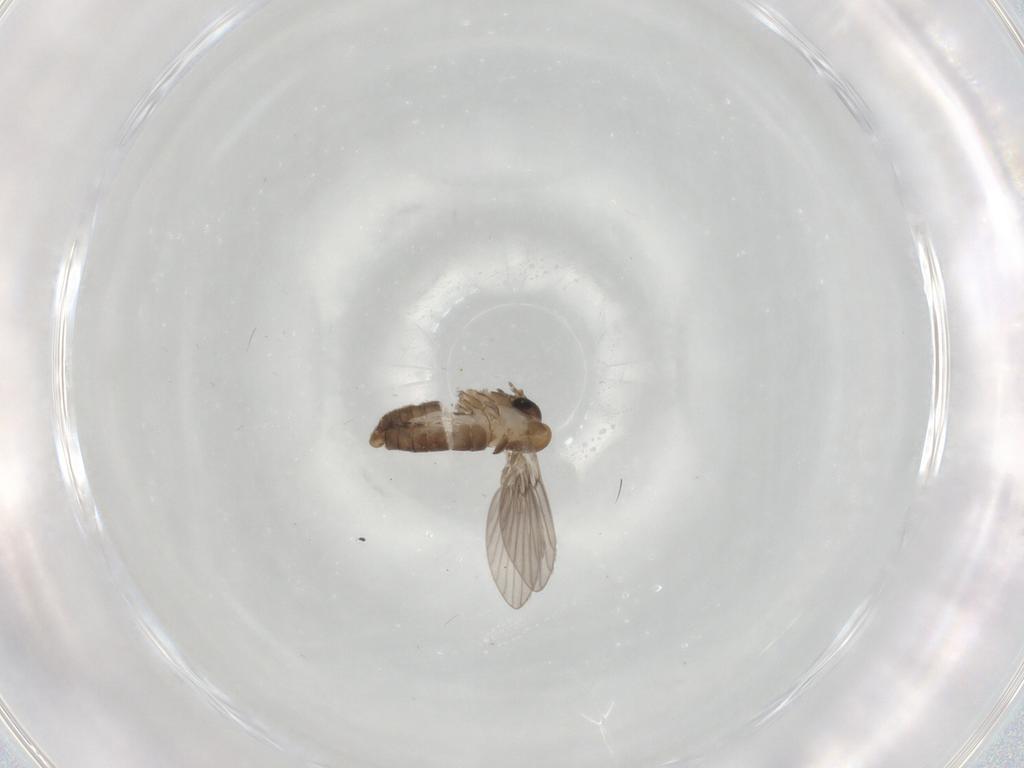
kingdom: Animalia
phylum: Arthropoda
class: Insecta
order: Diptera
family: Psychodidae
